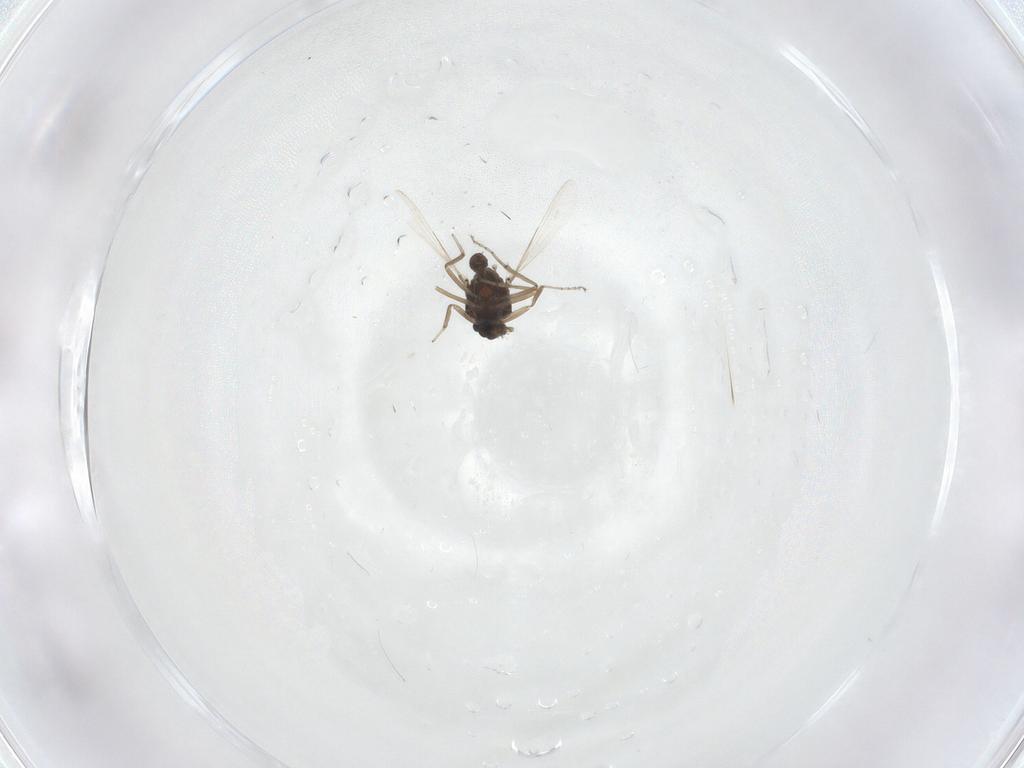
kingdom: Animalia
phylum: Arthropoda
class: Insecta
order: Diptera
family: Ceratopogonidae
